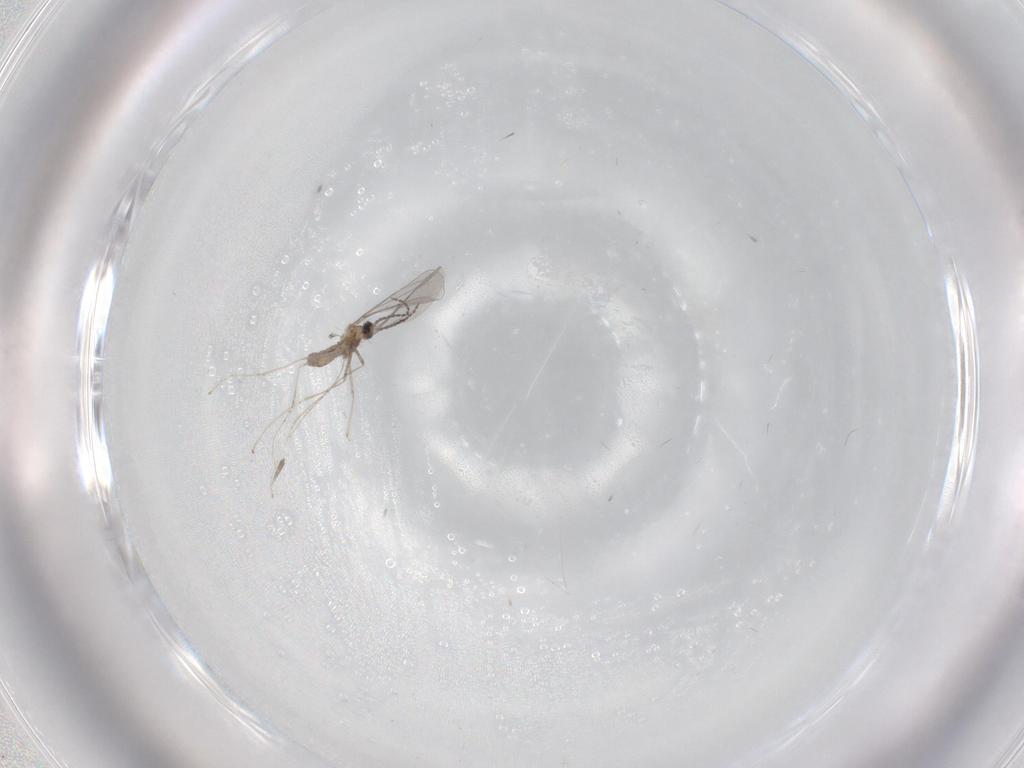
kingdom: Animalia
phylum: Arthropoda
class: Insecta
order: Diptera
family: Cecidomyiidae
